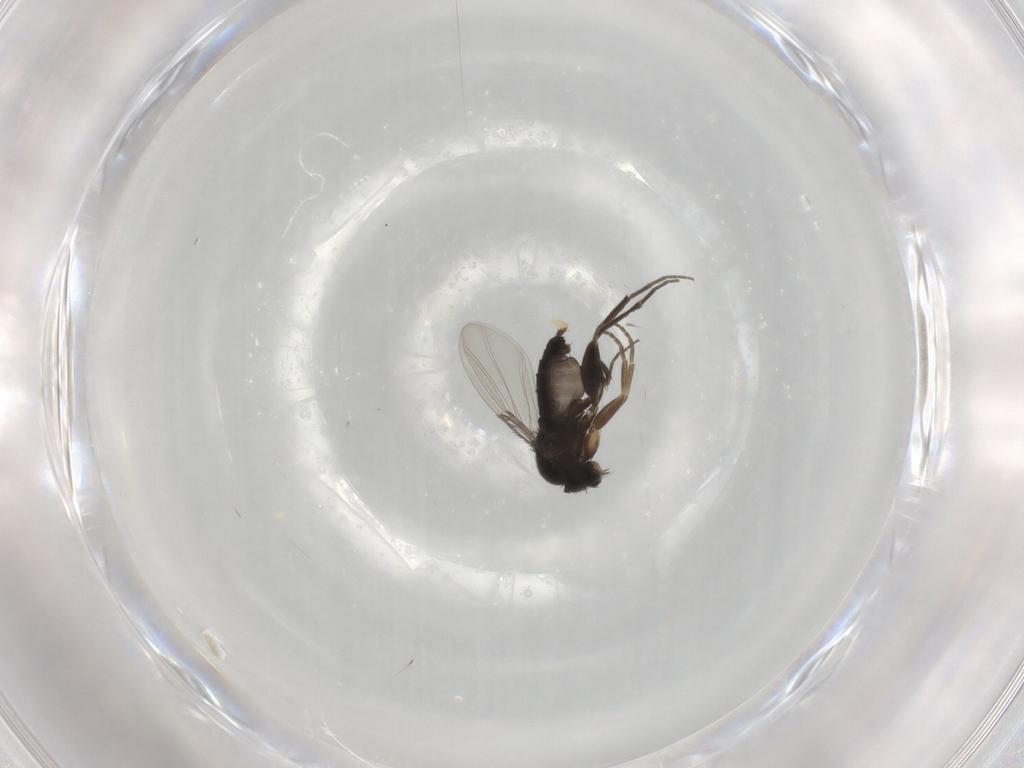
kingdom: Animalia
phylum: Arthropoda
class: Insecta
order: Diptera
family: Phoridae
